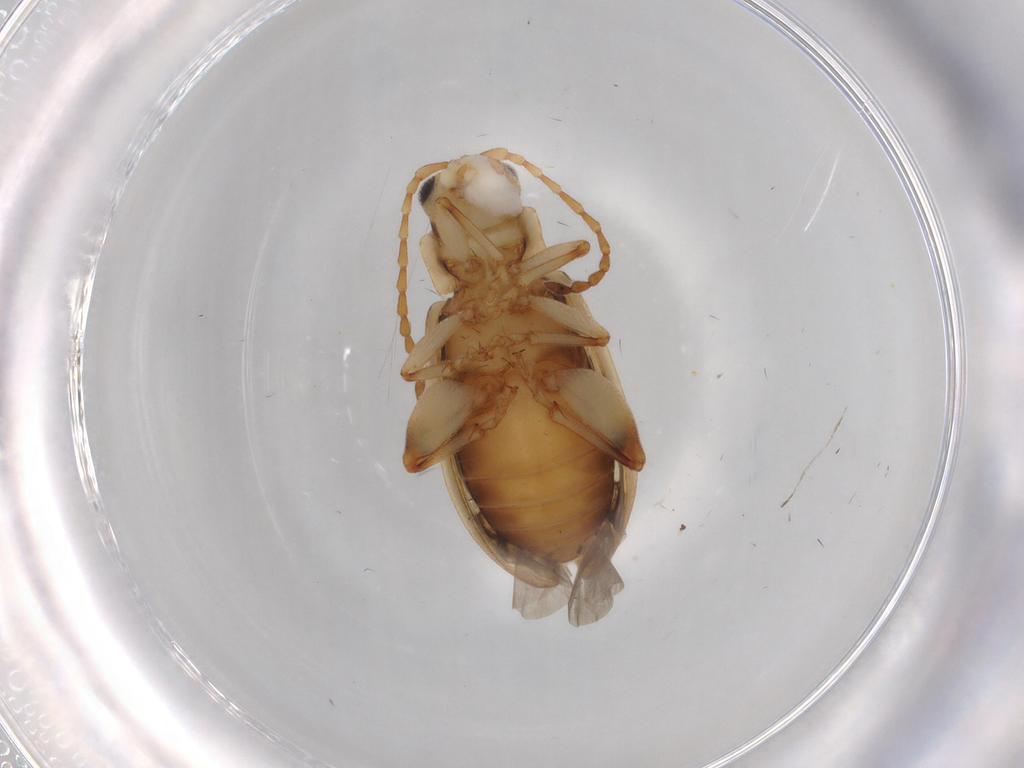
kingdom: Animalia
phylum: Arthropoda
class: Insecta
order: Coleoptera
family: Chrysomelidae
